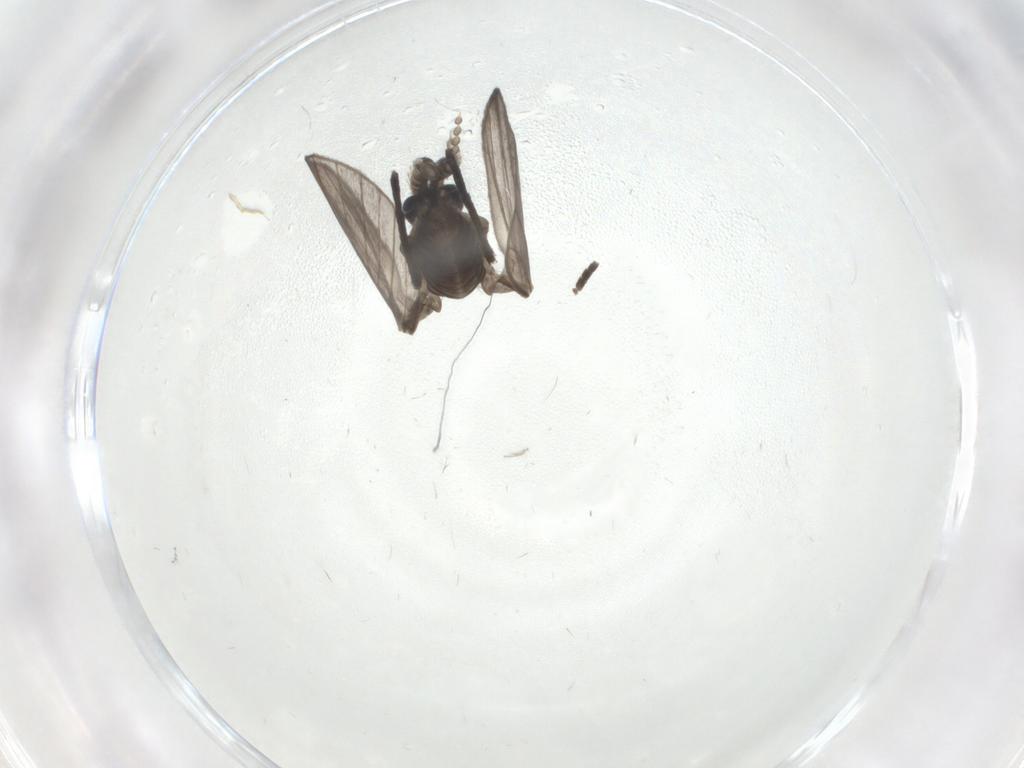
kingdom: Animalia
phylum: Arthropoda
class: Insecta
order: Diptera
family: Psychodidae
